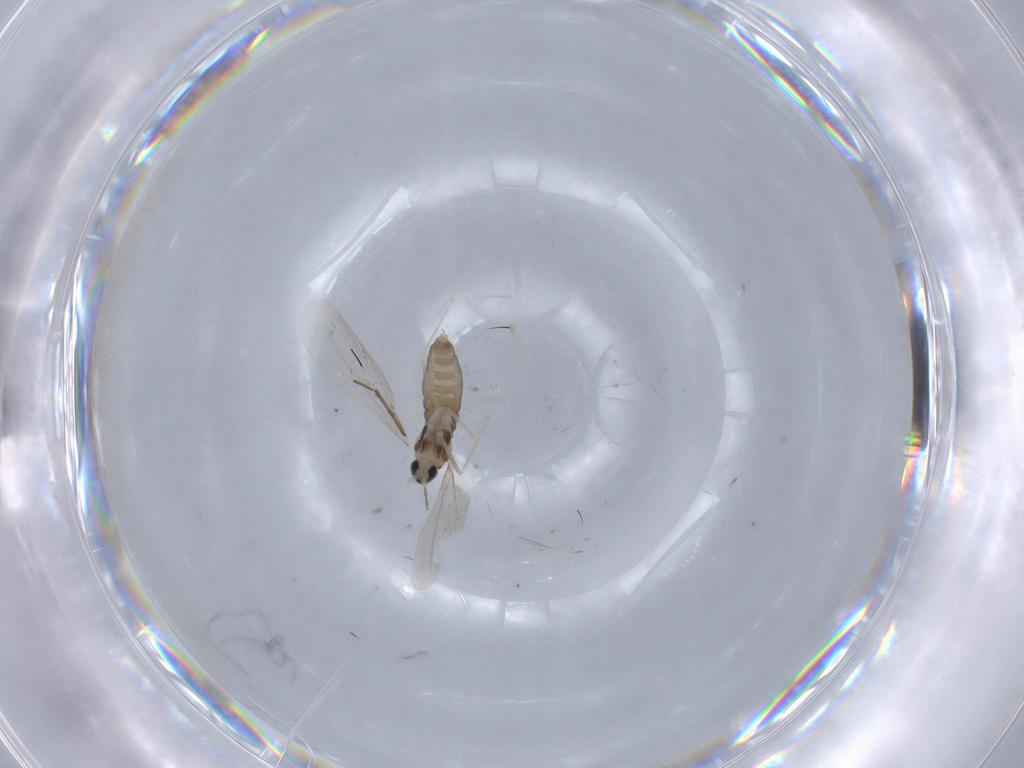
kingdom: Animalia
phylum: Arthropoda
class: Insecta
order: Diptera
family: Cecidomyiidae
